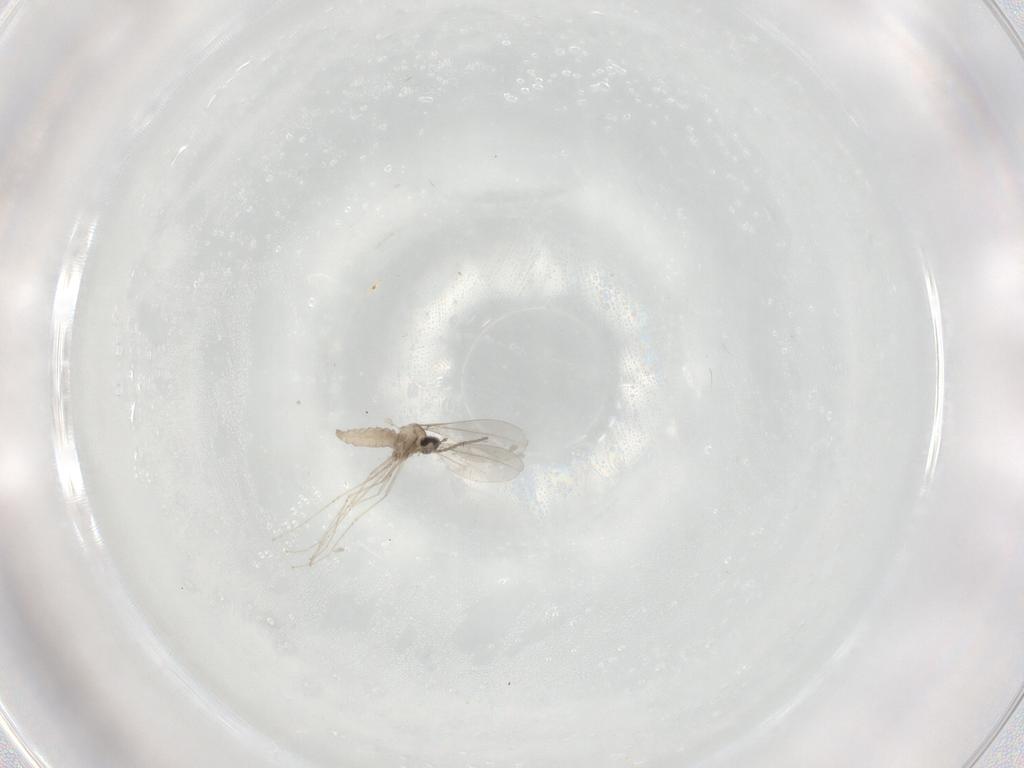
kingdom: Animalia
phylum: Arthropoda
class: Insecta
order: Diptera
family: Cecidomyiidae
